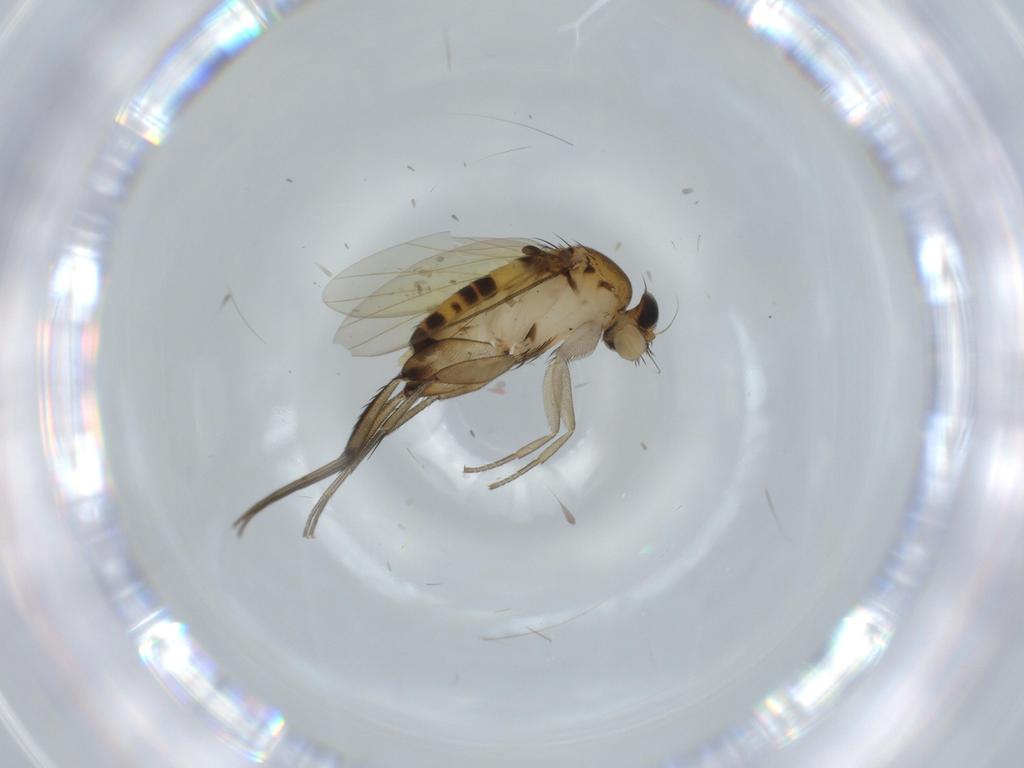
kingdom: Animalia
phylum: Arthropoda
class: Insecta
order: Diptera
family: Phoridae
